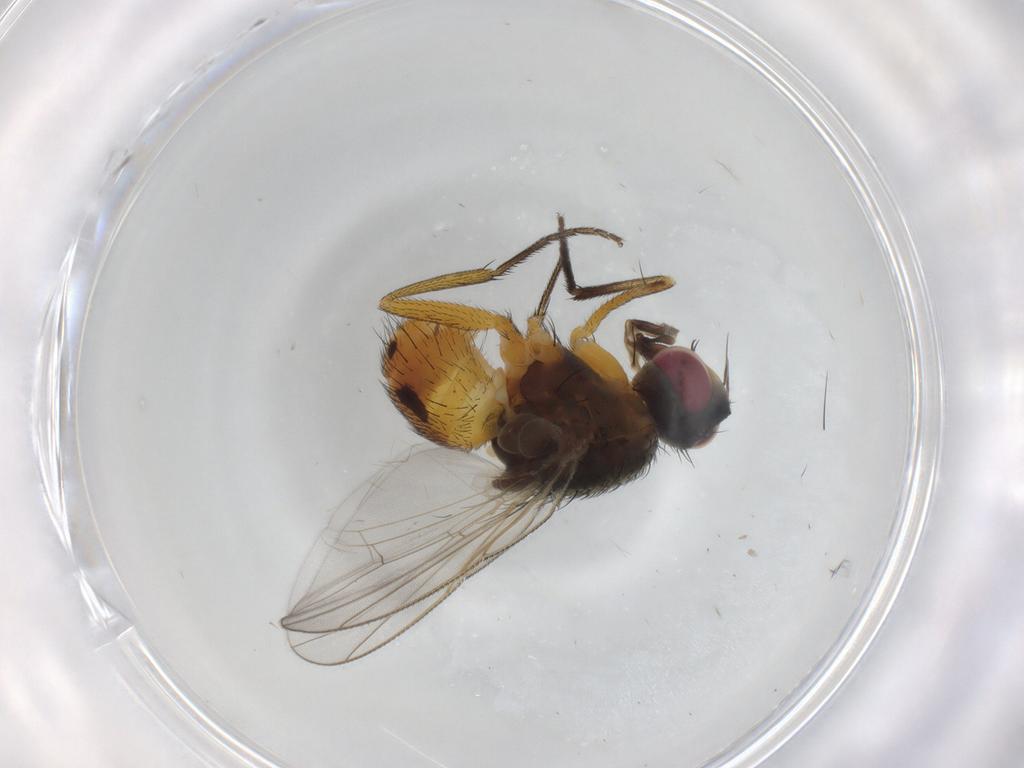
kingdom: Animalia
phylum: Arthropoda
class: Insecta
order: Diptera
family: Muscidae
